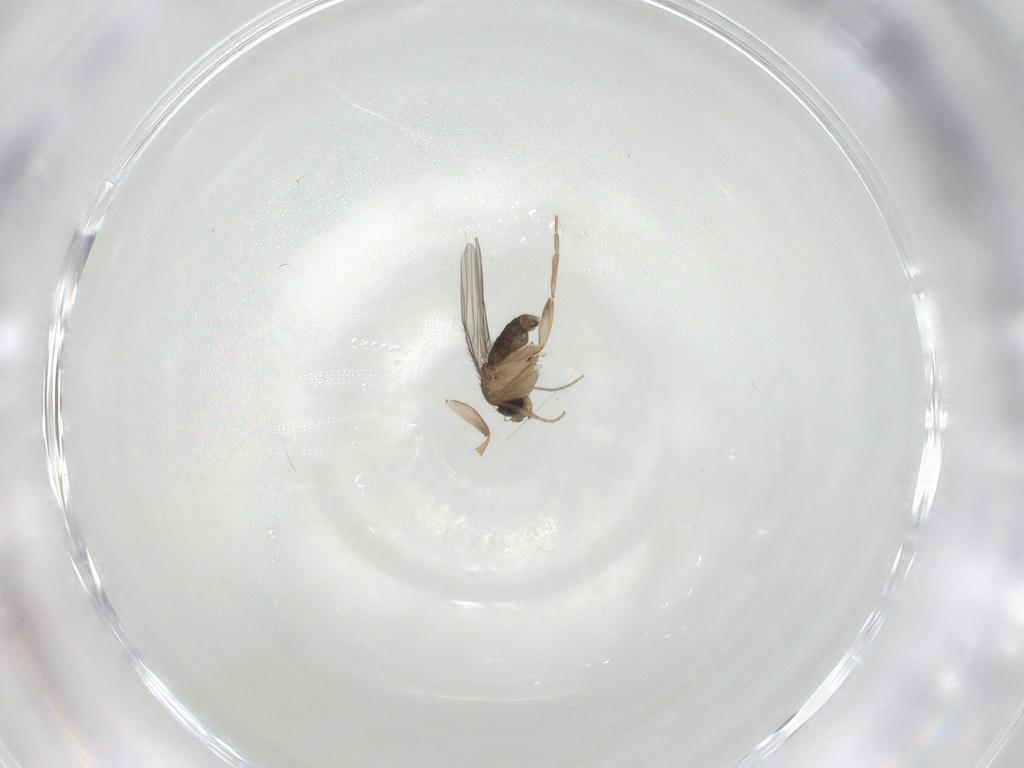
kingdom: Animalia
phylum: Arthropoda
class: Insecta
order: Diptera
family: Phoridae
